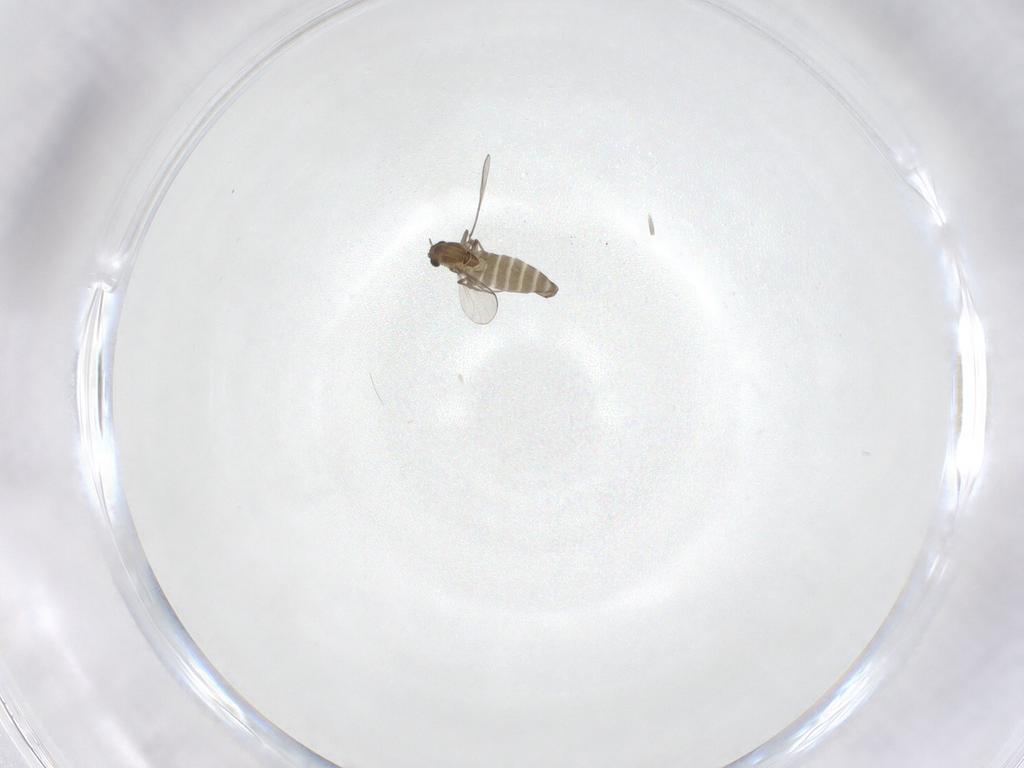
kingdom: Animalia
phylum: Arthropoda
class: Insecta
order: Diptera
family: Chironomidae
